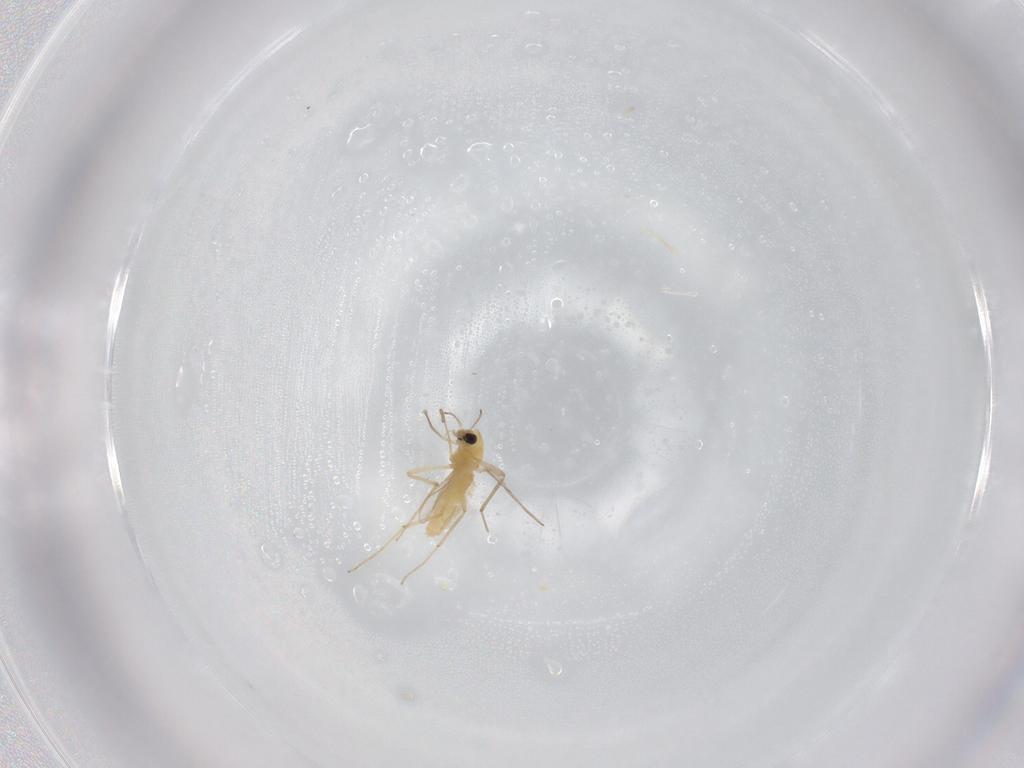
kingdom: Animalia
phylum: Arthropoda
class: Insecta
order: Diptera
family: Chironomidae
